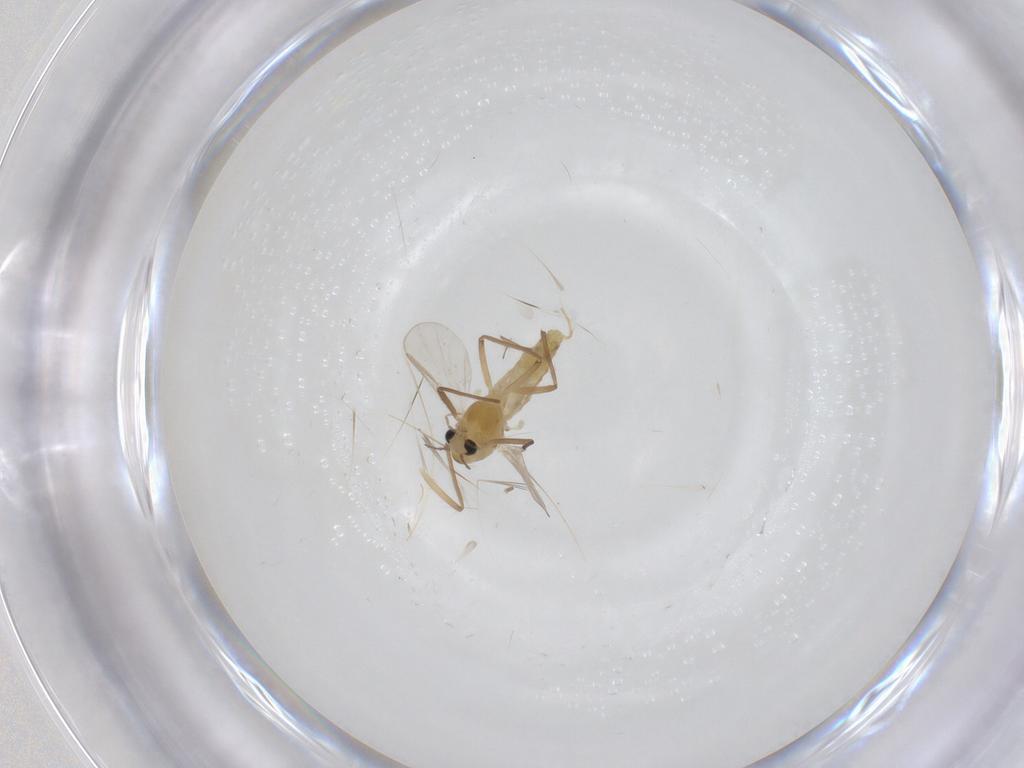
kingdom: Animalia
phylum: Arthropoda
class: Insecta
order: Diptera
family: Chironomidae
